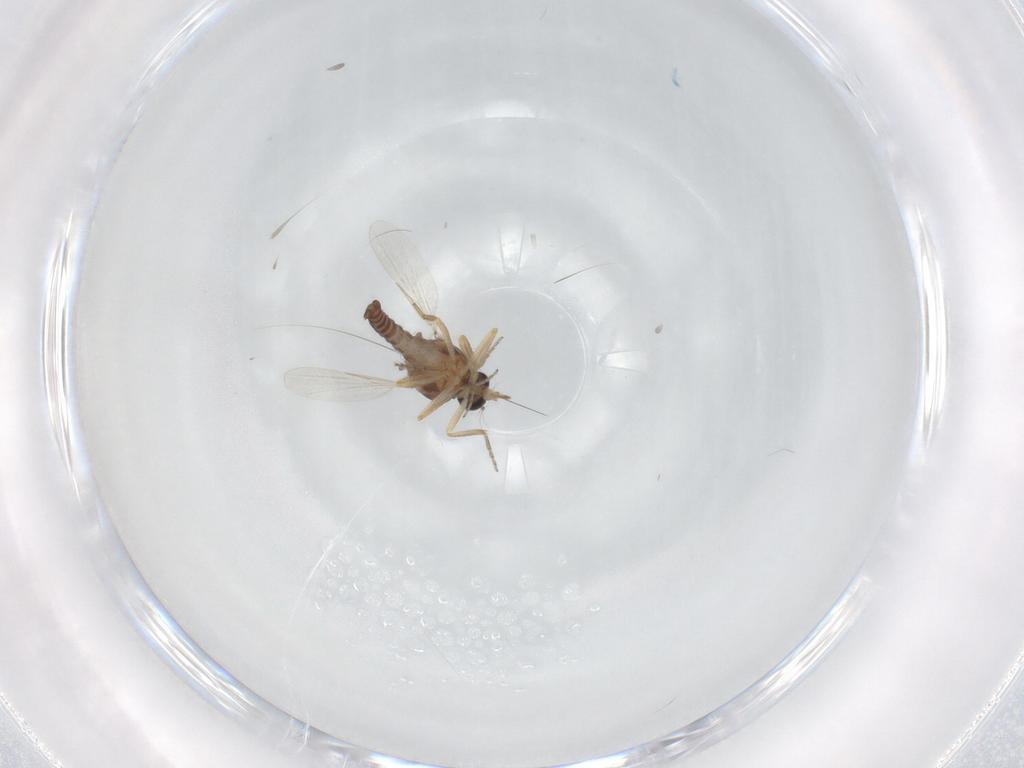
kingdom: Animalia
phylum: Arthropoda
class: Insecta
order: Diptera
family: Ceratopogonidae
